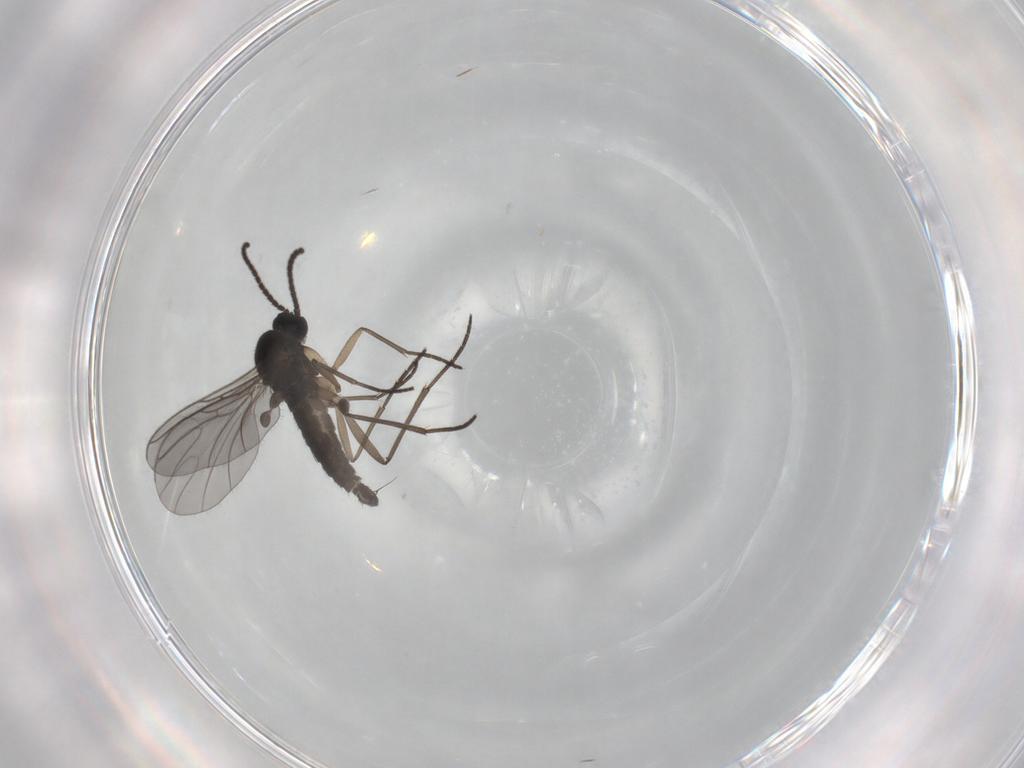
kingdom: Animalia
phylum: Arthropoda
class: Insecta
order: Diptera
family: Sciaridae
